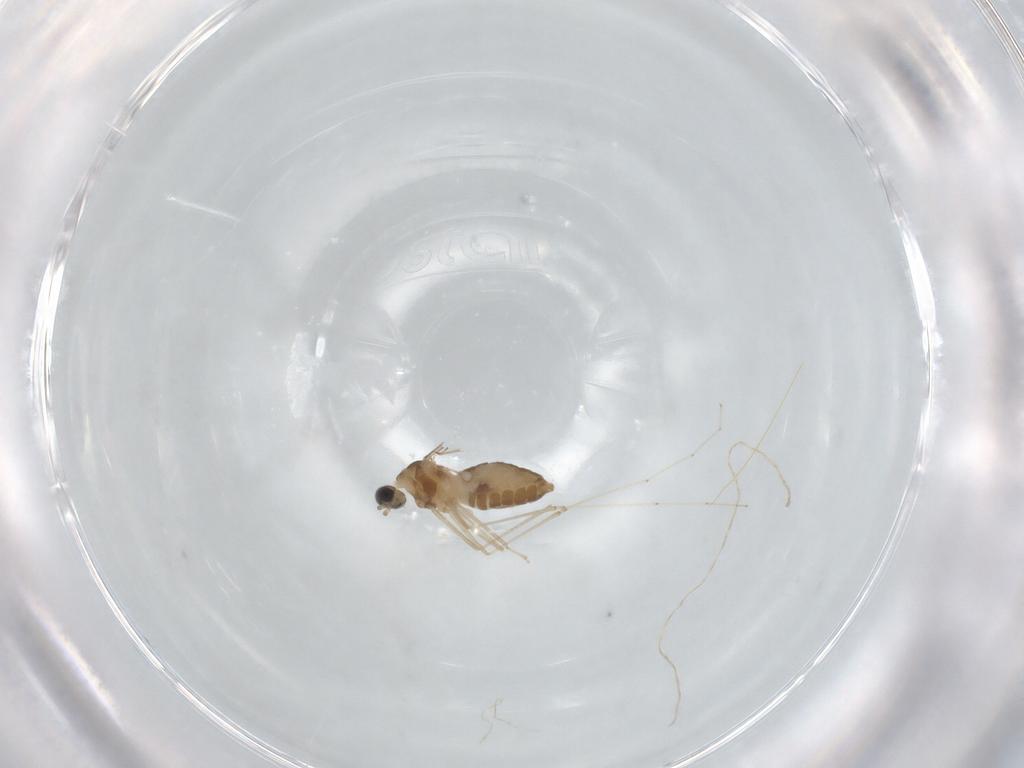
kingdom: Animalia
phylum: Arthropoda
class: Insecta
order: Diptera
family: Cecidomyiidae
